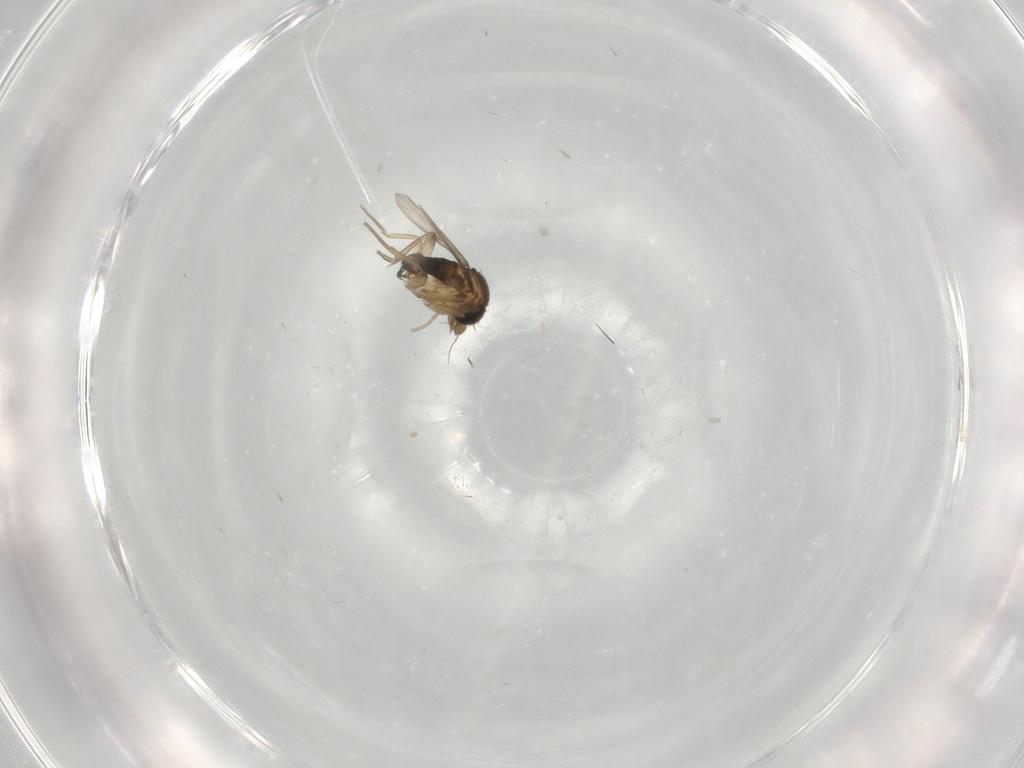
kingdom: Animalia
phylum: Arthropoda
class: Insecta
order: Diptera
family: Phoridae
